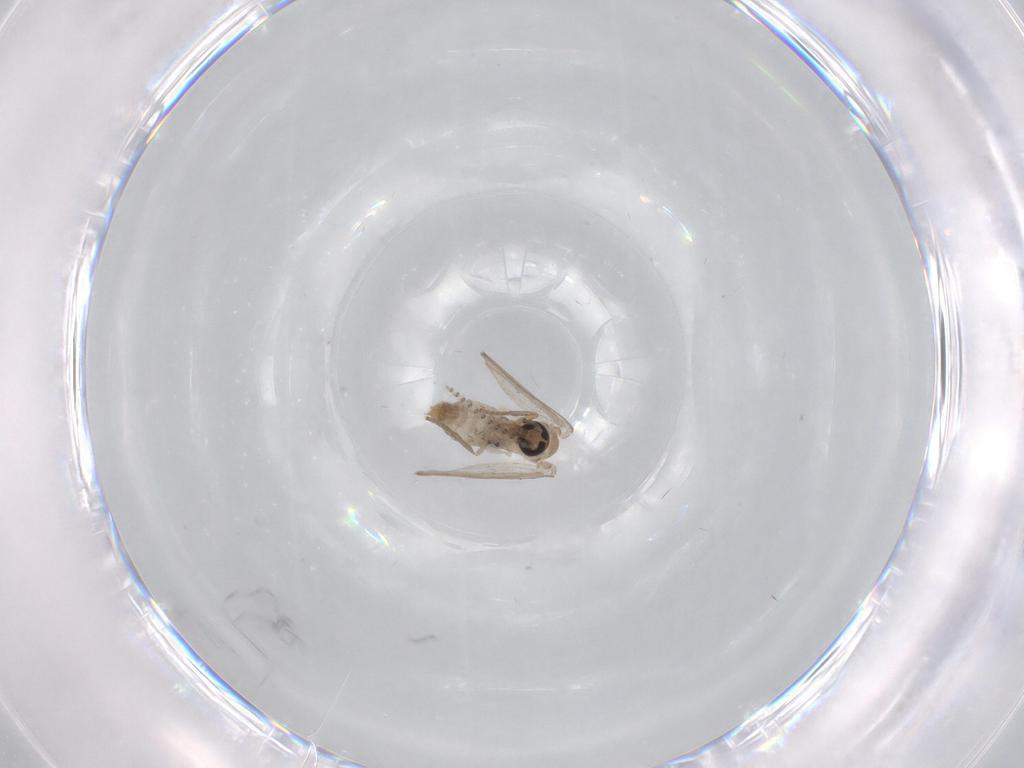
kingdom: Animalia
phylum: Arthropoda
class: Insecta
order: Diptera
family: Psychodidae
